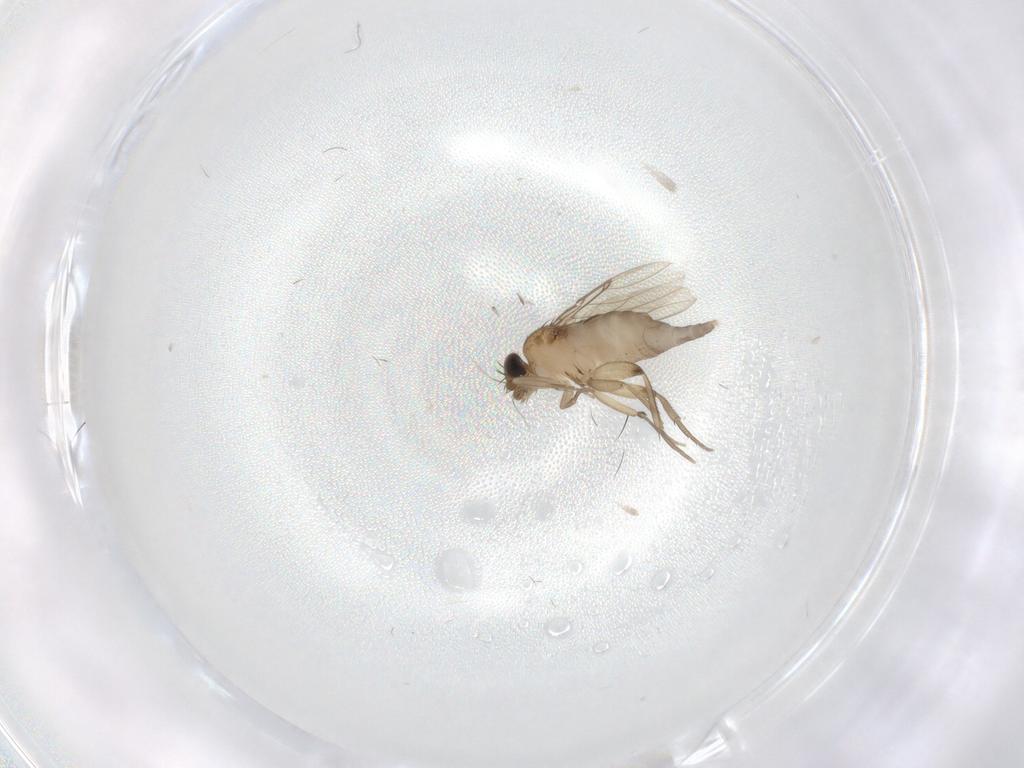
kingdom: Animalia
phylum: Arthropoda
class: Insecta
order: Diptera
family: Phoridae
